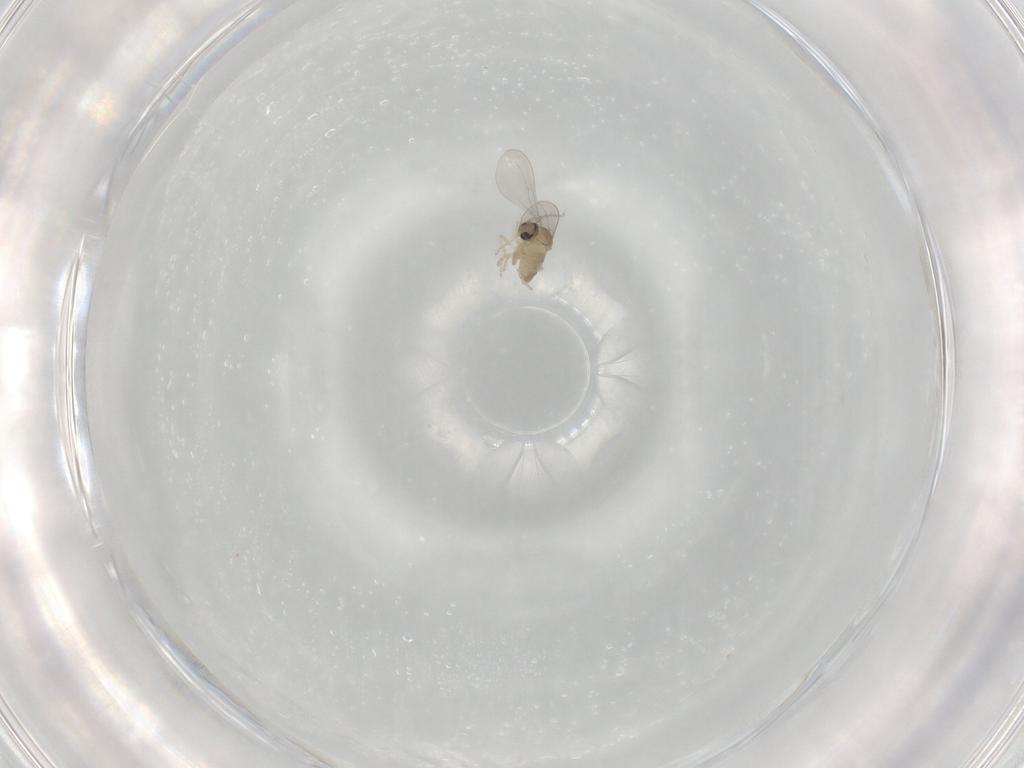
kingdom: Animalia
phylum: Arthropoda
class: Insecta
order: Diptera
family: Cecidomyiidae
